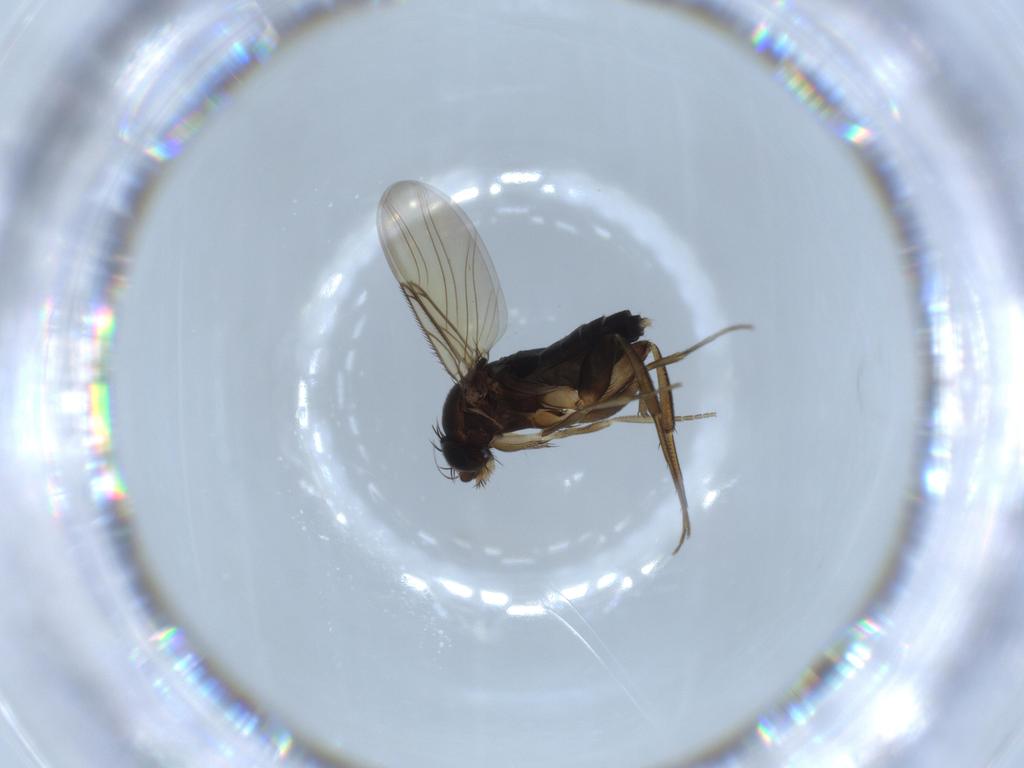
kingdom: Animalia
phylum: Arthropoda
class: Insecta
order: Diptera
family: Phoridae
